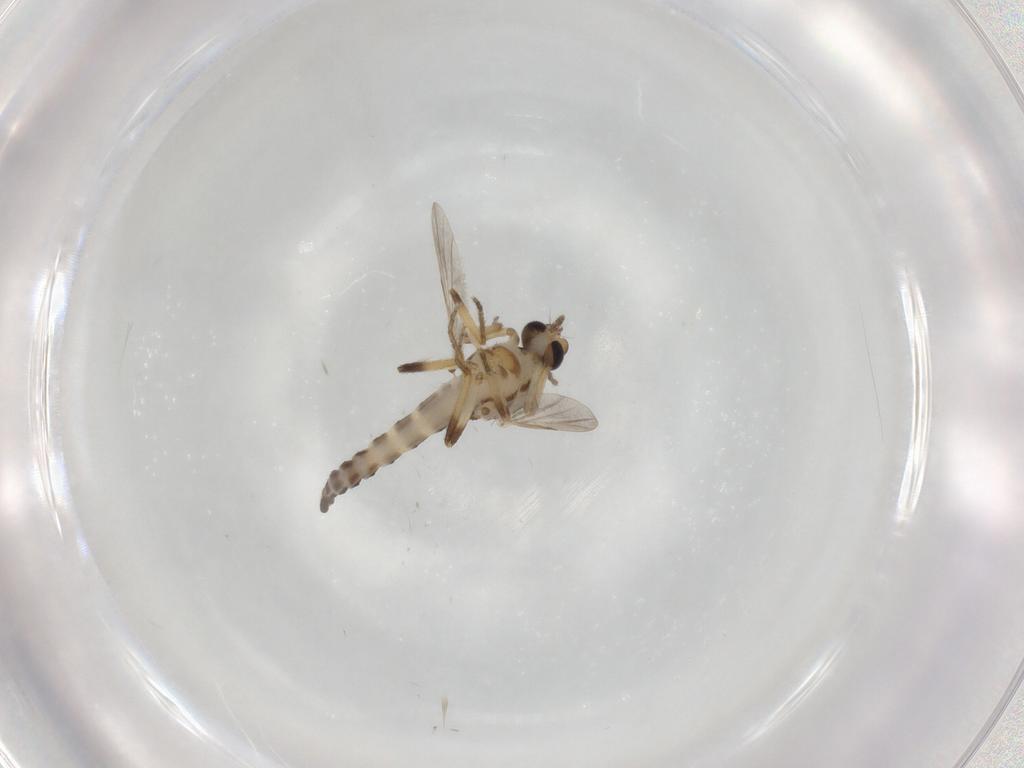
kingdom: Animalia
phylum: Arthropoda
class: Insecta
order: Diptera
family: Ceratopogonidae
